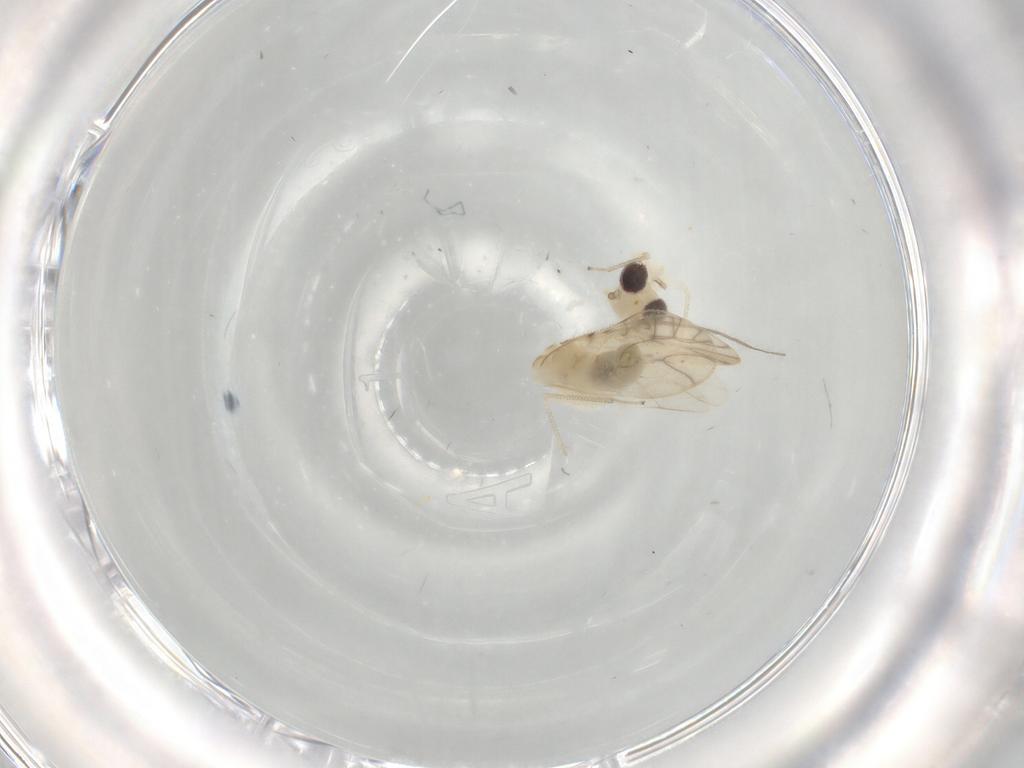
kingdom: Animalia
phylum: Arthropoda
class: Insecta
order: Psocodea
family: Caeciliusidae
